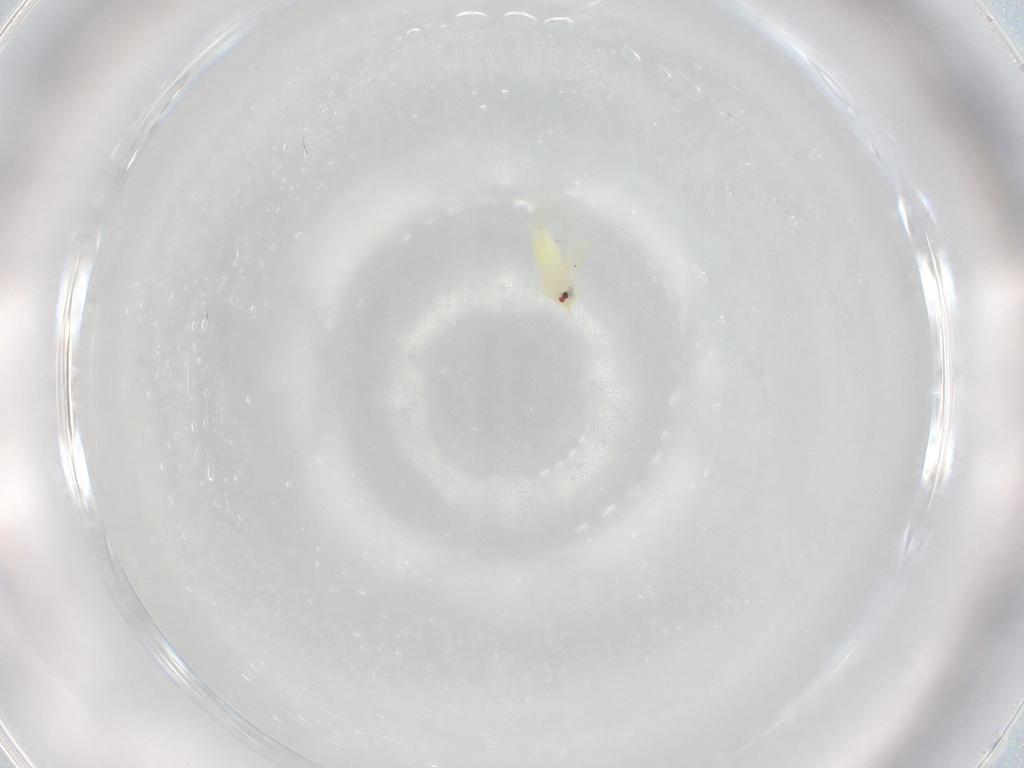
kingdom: Animalia
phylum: Arthropoda
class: Insecta
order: Hemiptera
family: Aleyrodidae
